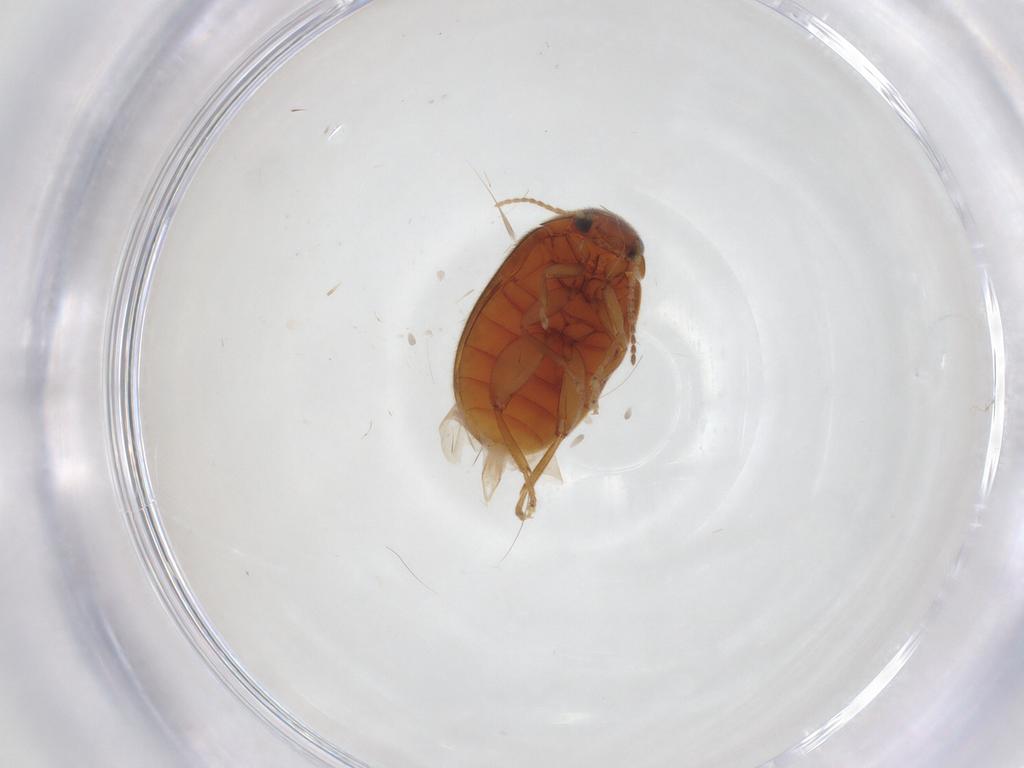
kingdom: Animalia
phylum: Arthropoda
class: Insecta
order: Coleoptera
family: Scirtidae
